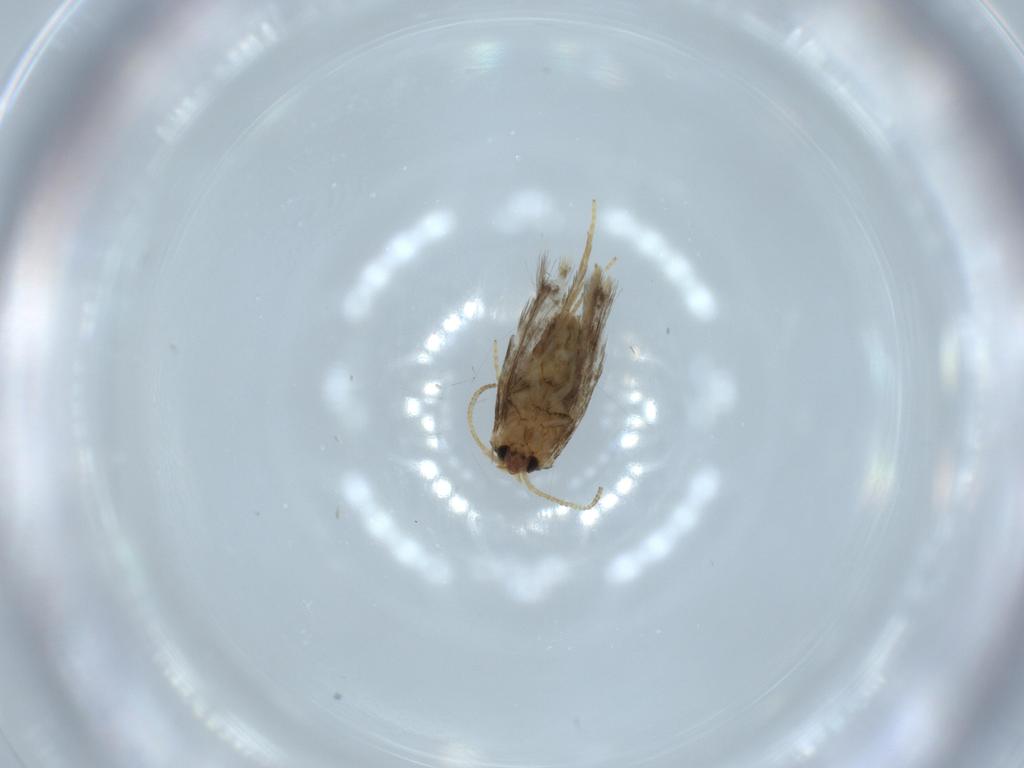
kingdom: Animalia
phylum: Arthropoda
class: Insecta
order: Lepidoptera
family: Nepticulidae
